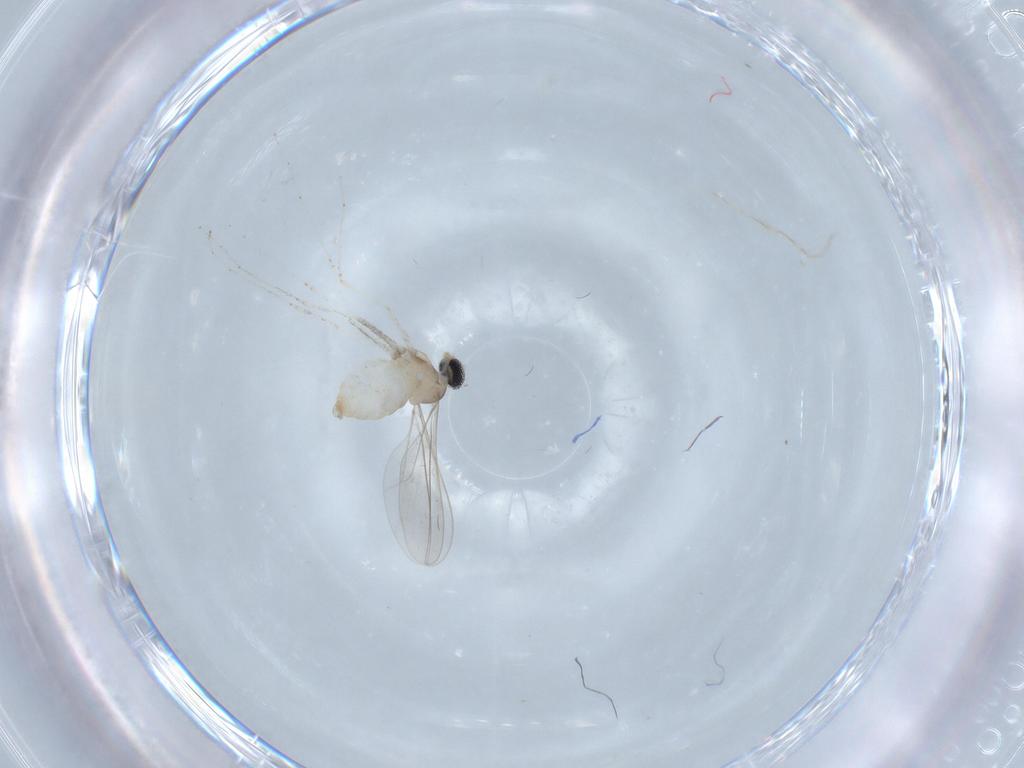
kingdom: Animalia
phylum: Arthropoda
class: Insecta
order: Diptera
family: Cecidomyiidae
